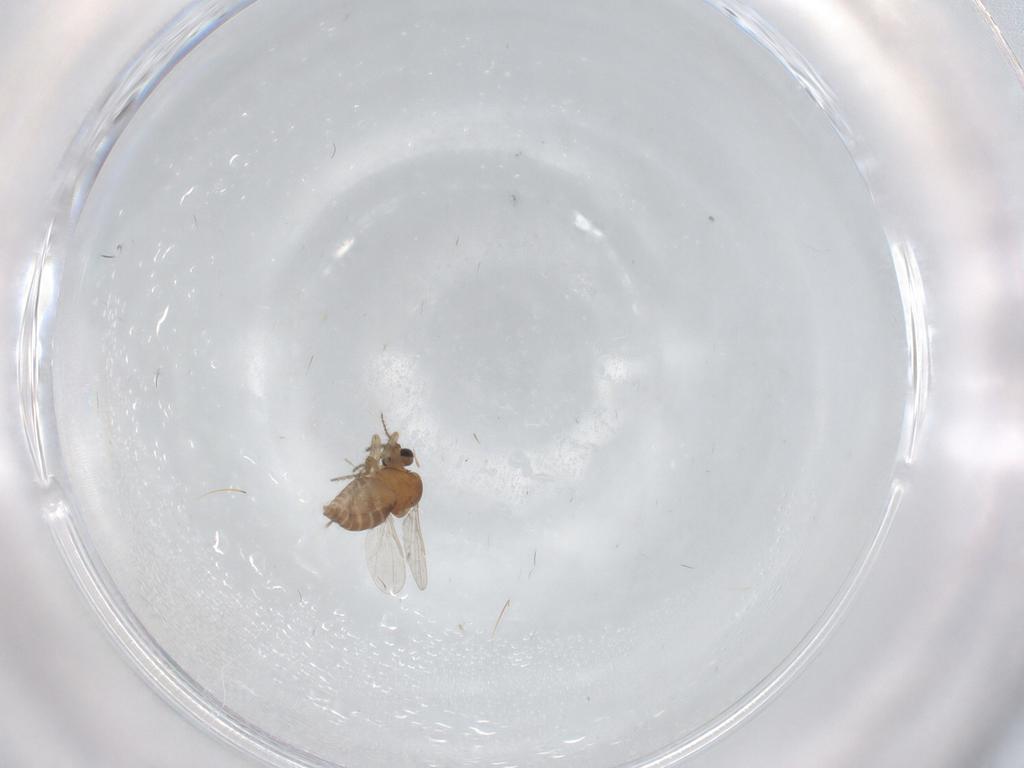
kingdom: Animalia
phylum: Arthropoda
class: Insecta
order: Diptera
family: Ceratopogonidae
